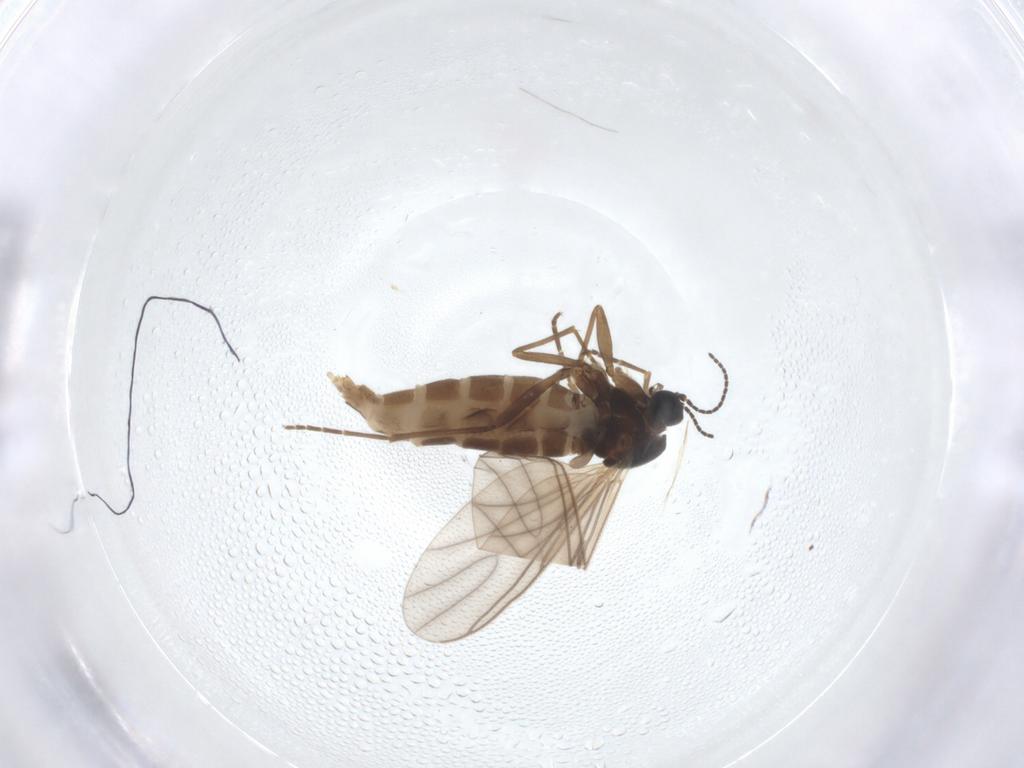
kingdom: Animalia
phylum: Arthropoda
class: Insecta
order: Diptera
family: Sciaridae
